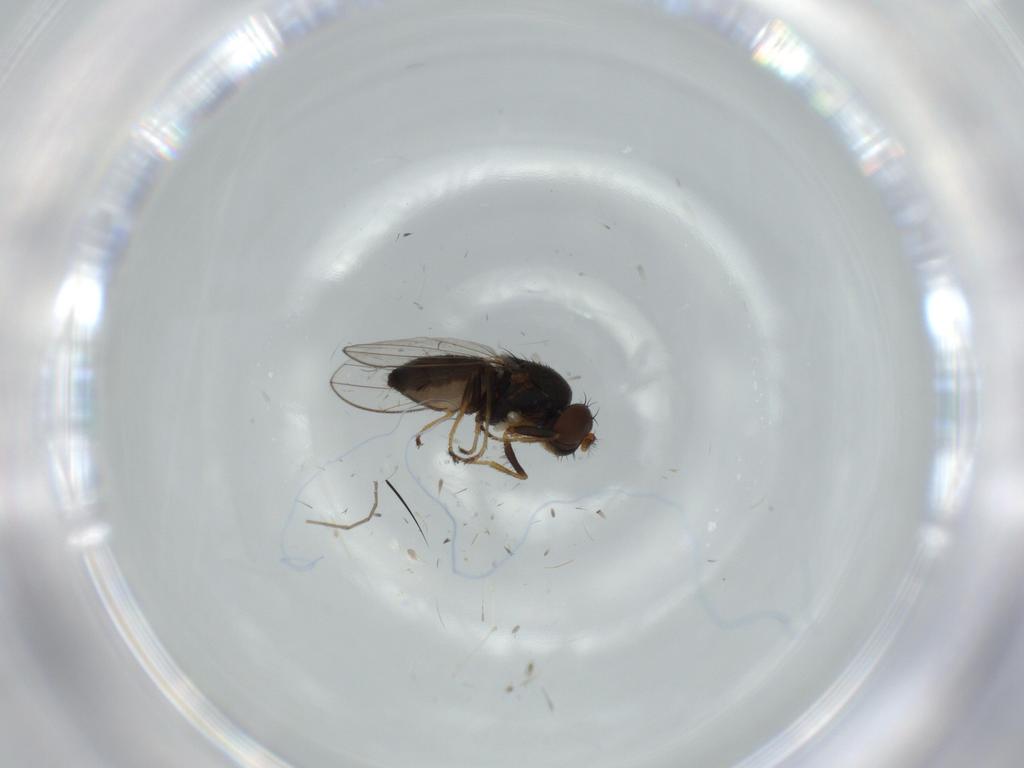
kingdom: Animalia
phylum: Arthropoda
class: Insecta
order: Diptera
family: Ephydridae
